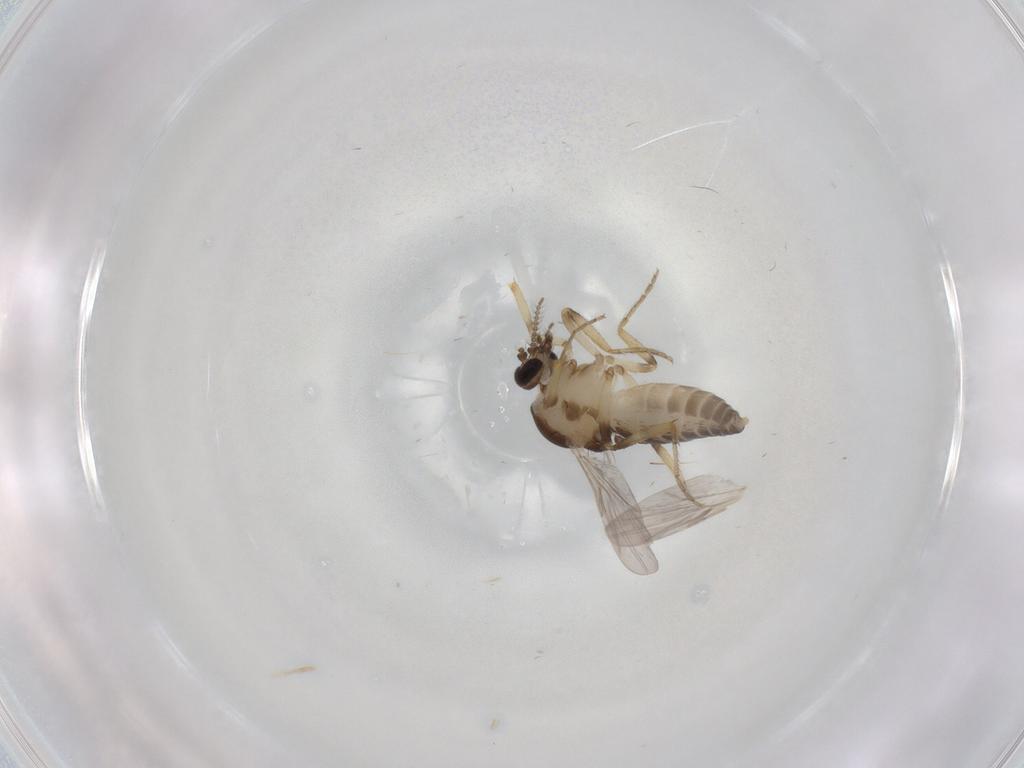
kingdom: Animalia
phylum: Arthropoda
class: Insecta
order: Diptera
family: Ceratopogonidae
